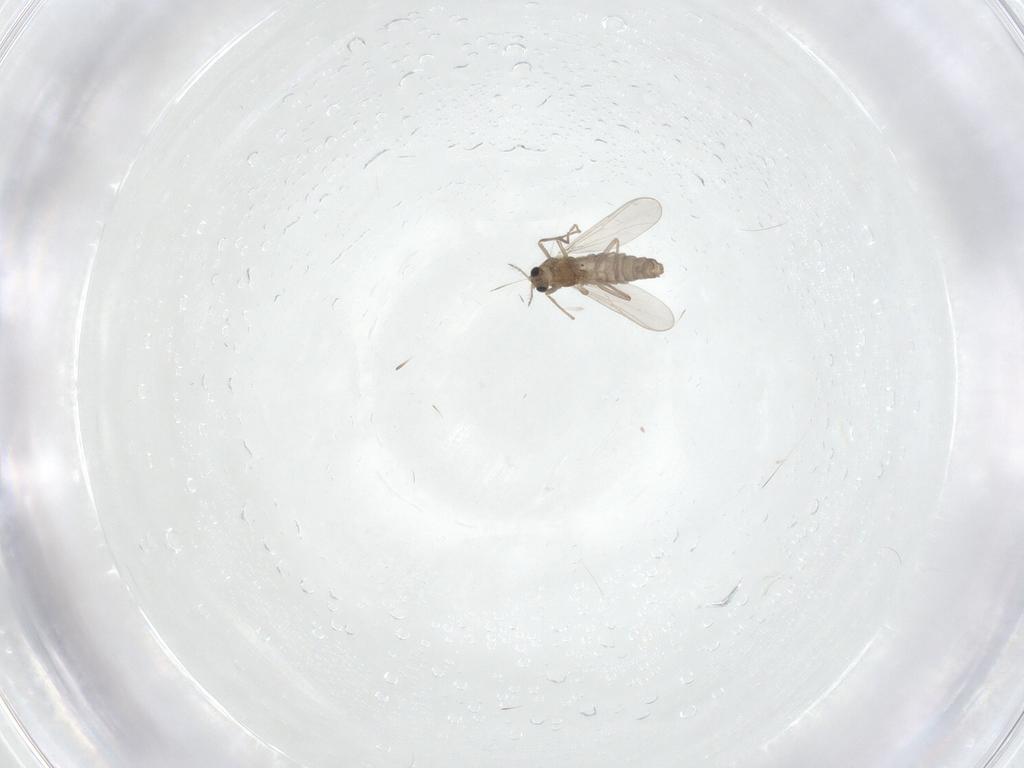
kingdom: Animalia
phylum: Arthropoda
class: Insecta
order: Diptera
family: Chironomidae
